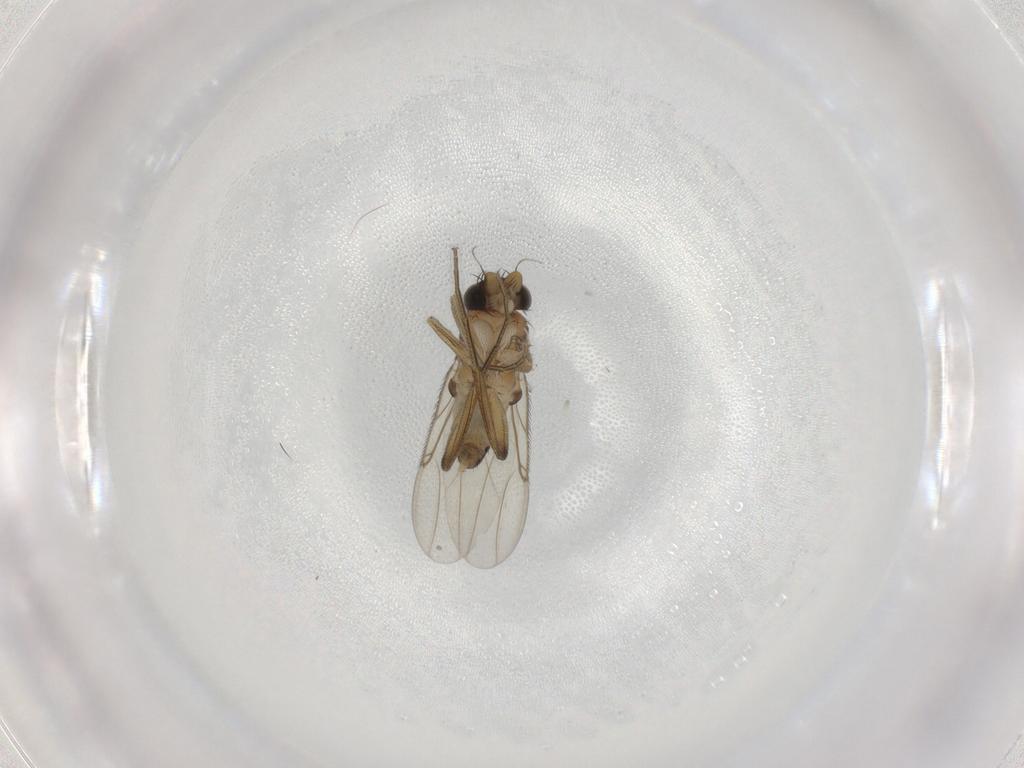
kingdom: Animalia
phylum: Arthropoda
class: Insecta
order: Diptera
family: Phoridae
